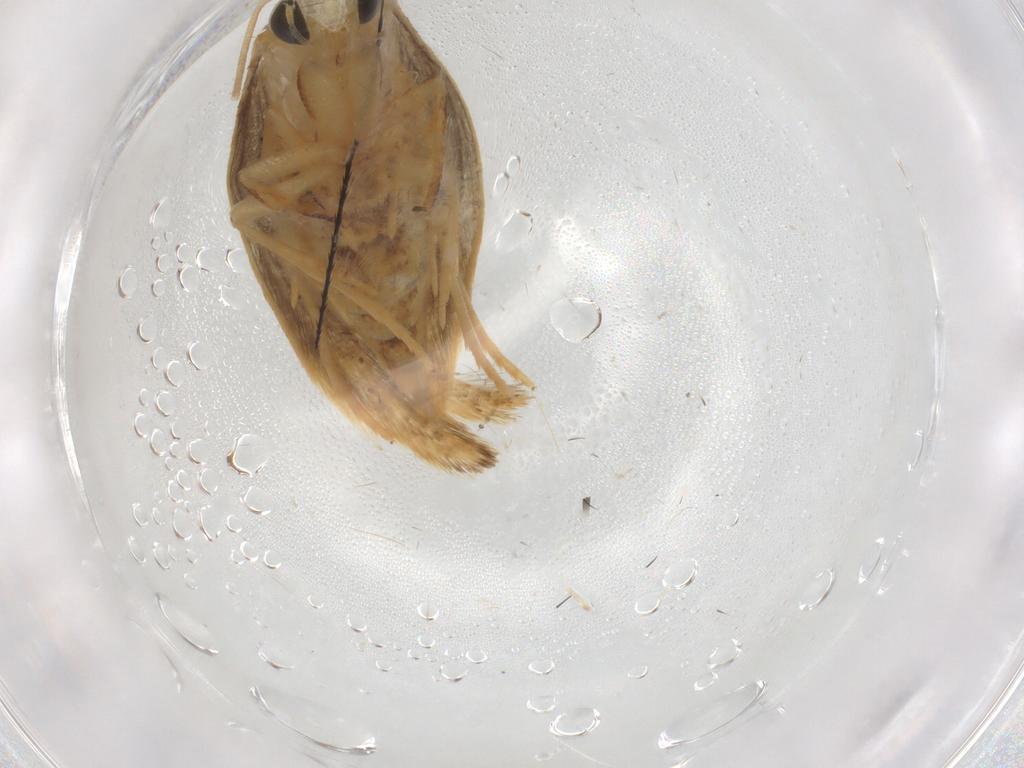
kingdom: Animalia
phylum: Arthropoda
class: Insecta
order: Lepidoptera
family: Tineidae
